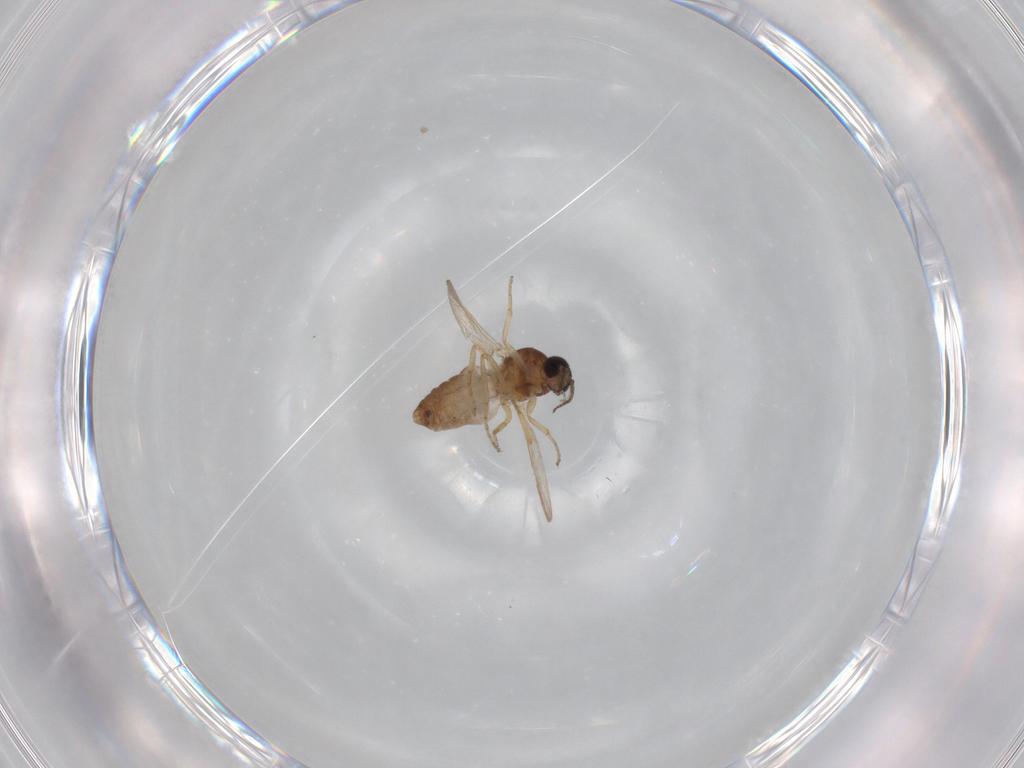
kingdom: Animalia
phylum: Arthropoda
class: Insecta
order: Diptera
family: Ceratopogonidae
